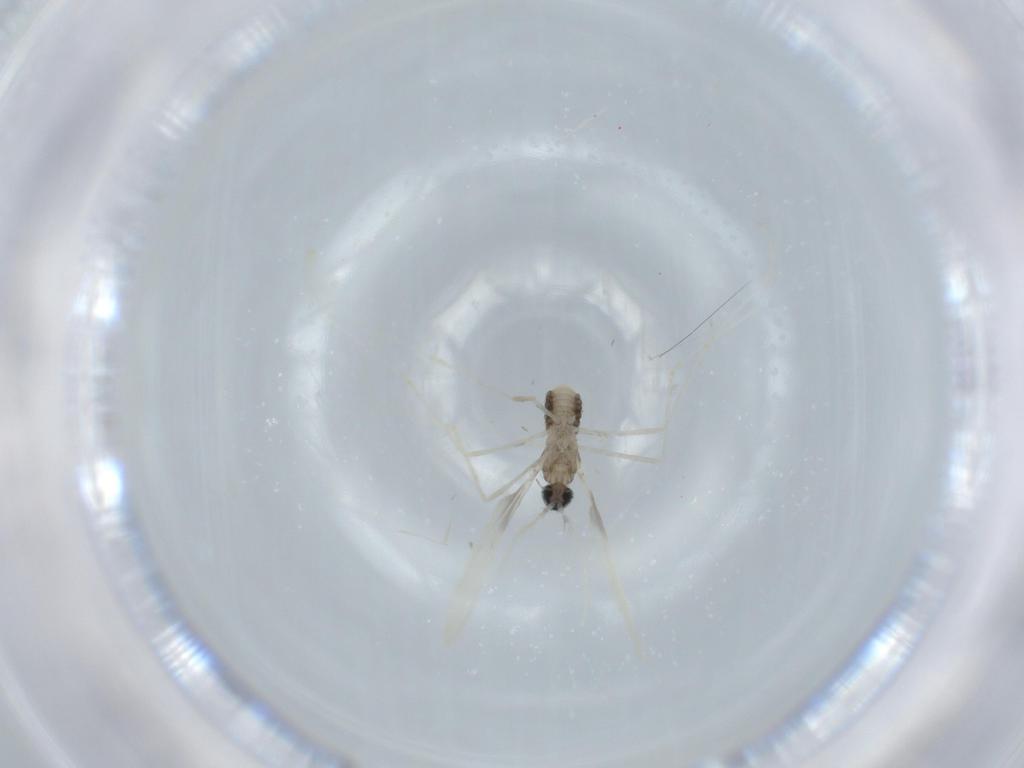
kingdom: Animalia
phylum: Arthropoda
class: Insecta
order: Diptera
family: Cecidomyiidae
